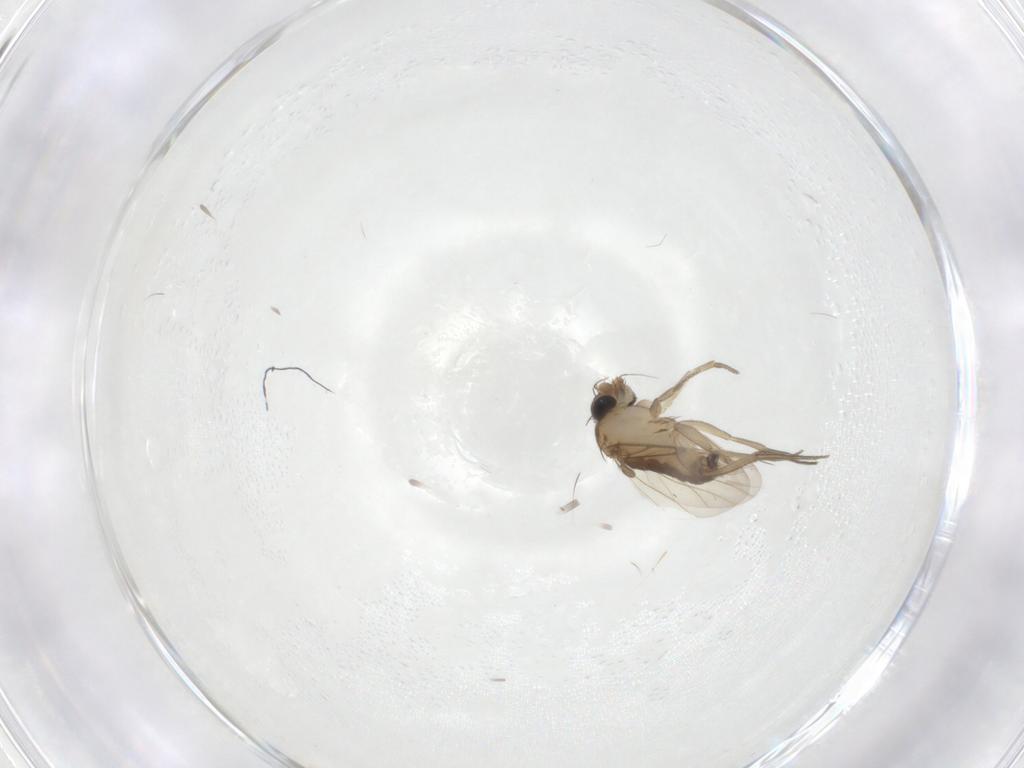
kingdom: Animalia
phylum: Arthropoda
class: Insecta
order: Diptera
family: Phoridae
